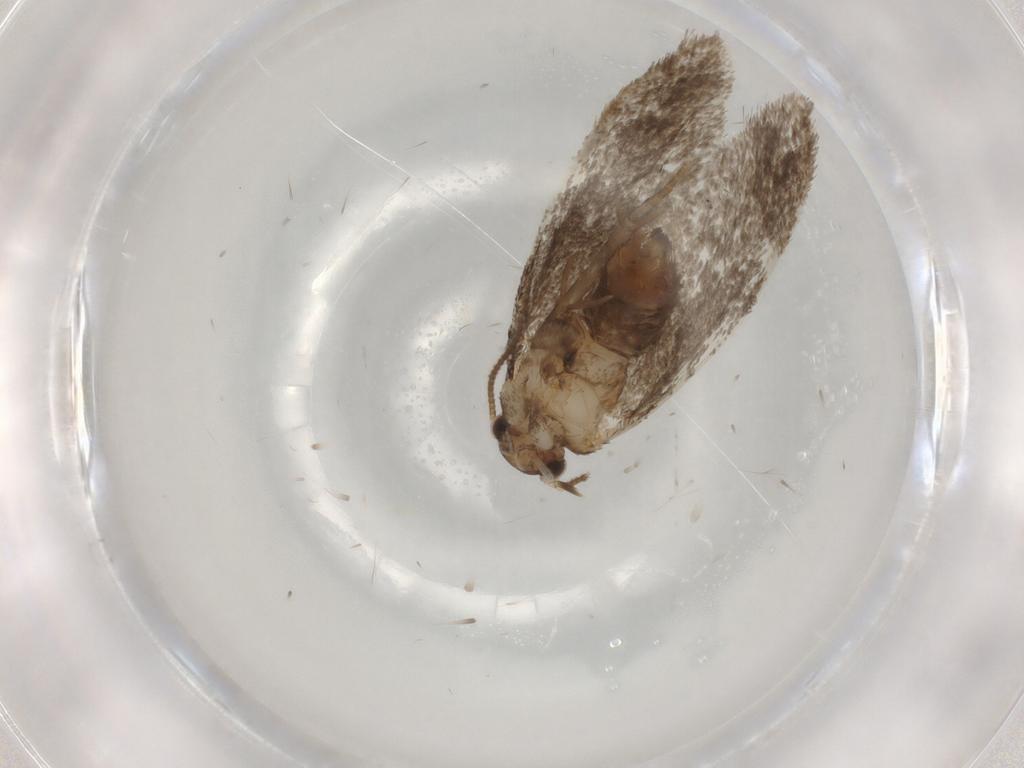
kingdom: Animalia
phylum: Arthropoda
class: Insecta
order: Lepidoptera
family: Dryadaulidae
